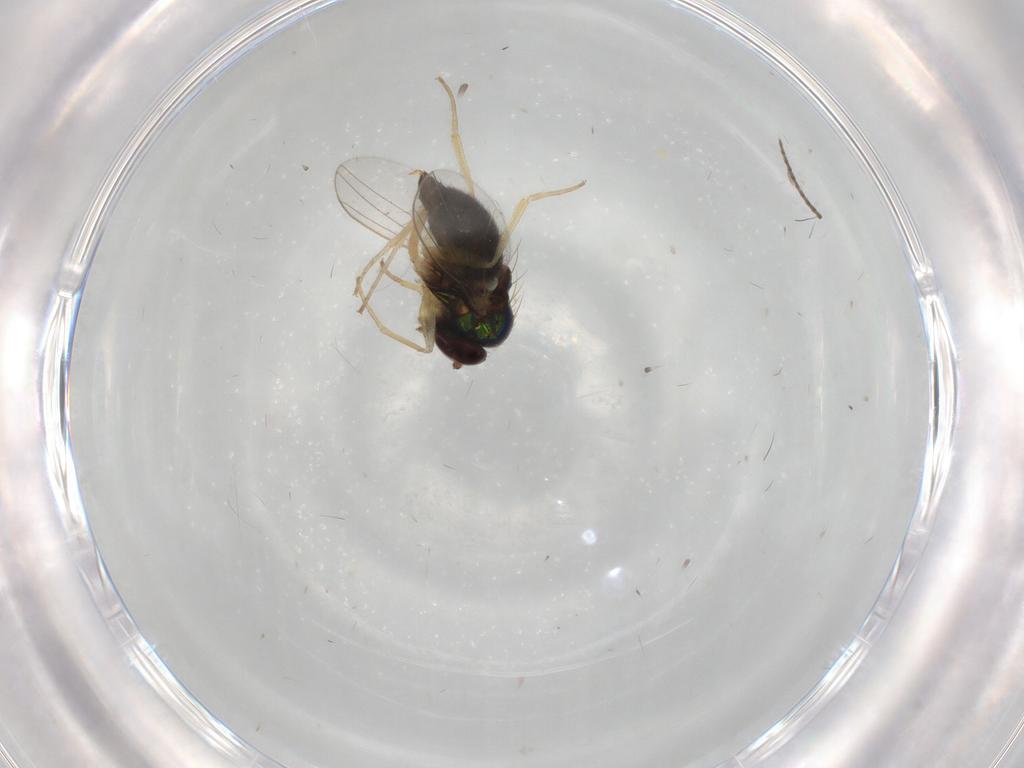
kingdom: Animalia
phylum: Arthropoda
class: Insecta
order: Diptera
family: Dolichopodidae
